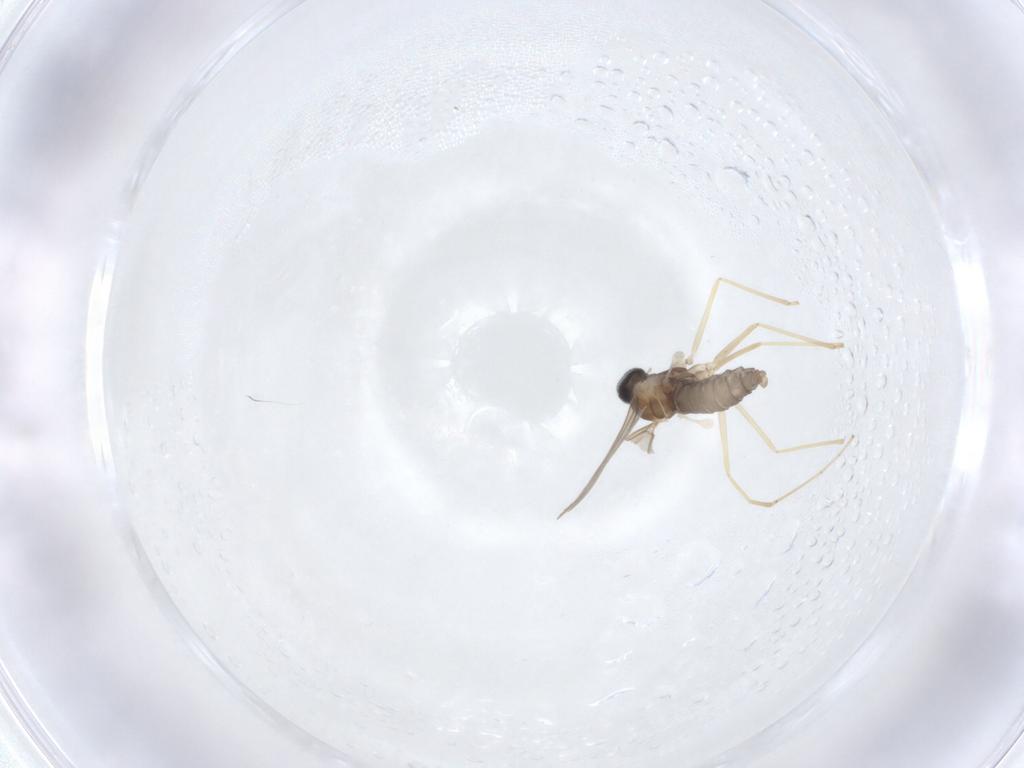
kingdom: Animalia
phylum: Arthropoda
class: Insecta
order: Diptera
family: Cecidomyiidae
